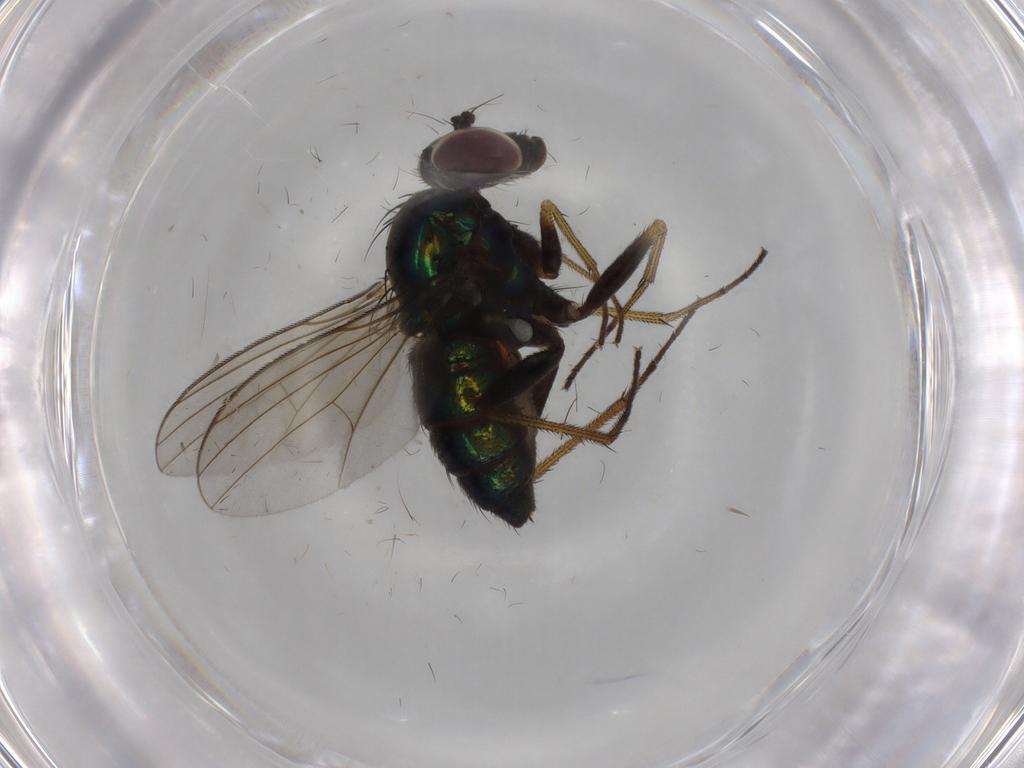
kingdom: Animalia
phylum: Arthropoda
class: Insecta
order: Diptera
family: Dolichopodidae
